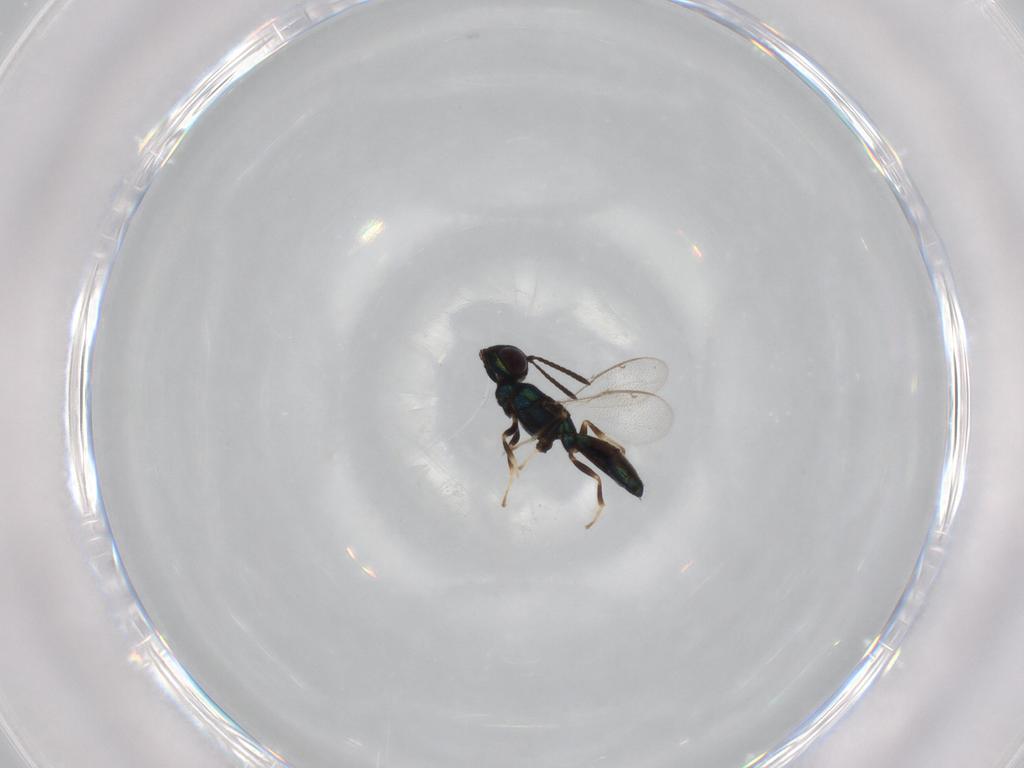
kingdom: Animalia
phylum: Arthropoda
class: Insecta
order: Hymenoptera
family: Aphelinidae
